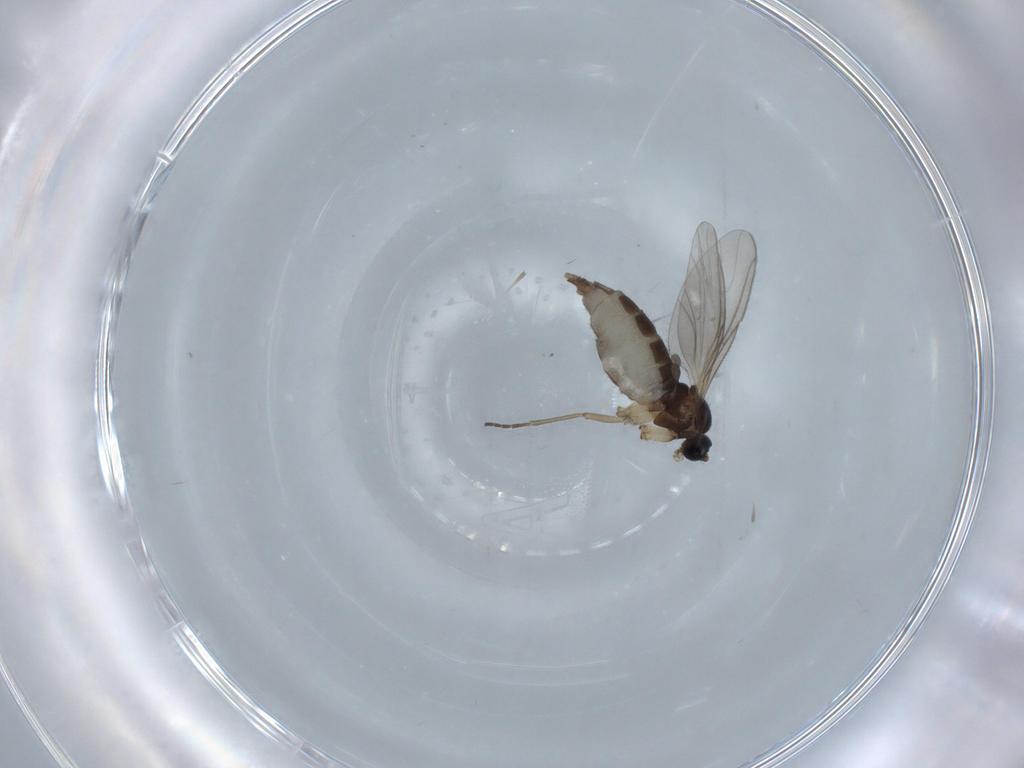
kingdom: Animalia
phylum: Arthropoda
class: Insecta
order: Diptera
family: Sciaridae
